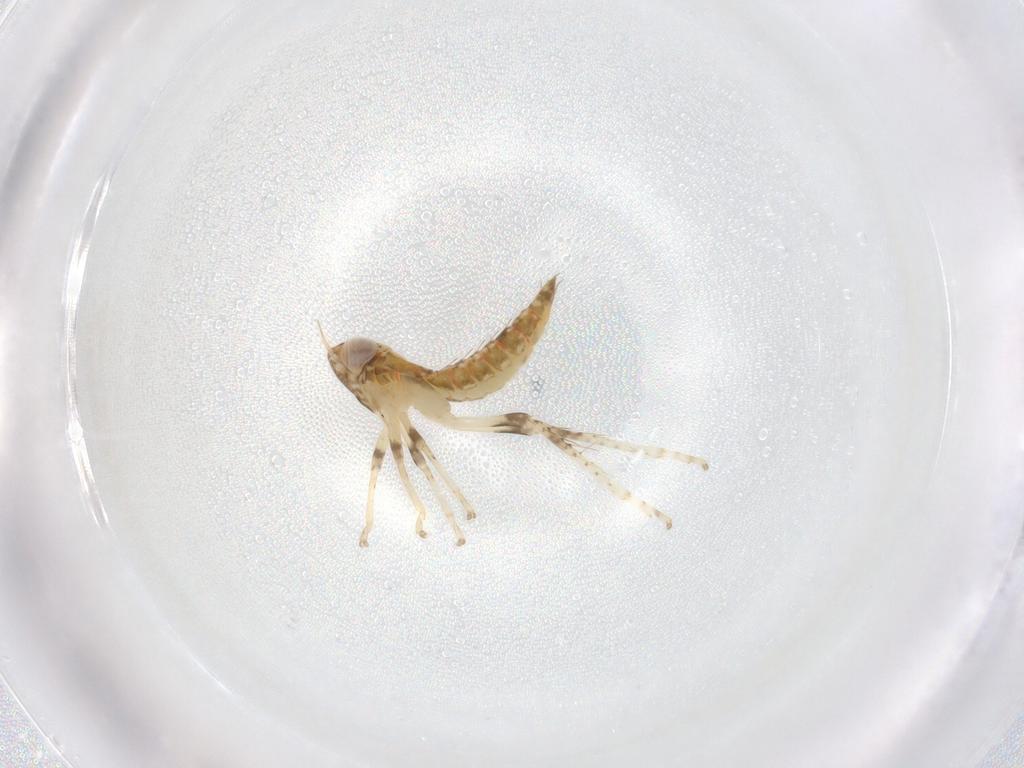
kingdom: Animalia
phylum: Arthropoda
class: Insecta
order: Hemiptera
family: Cicadellidae
